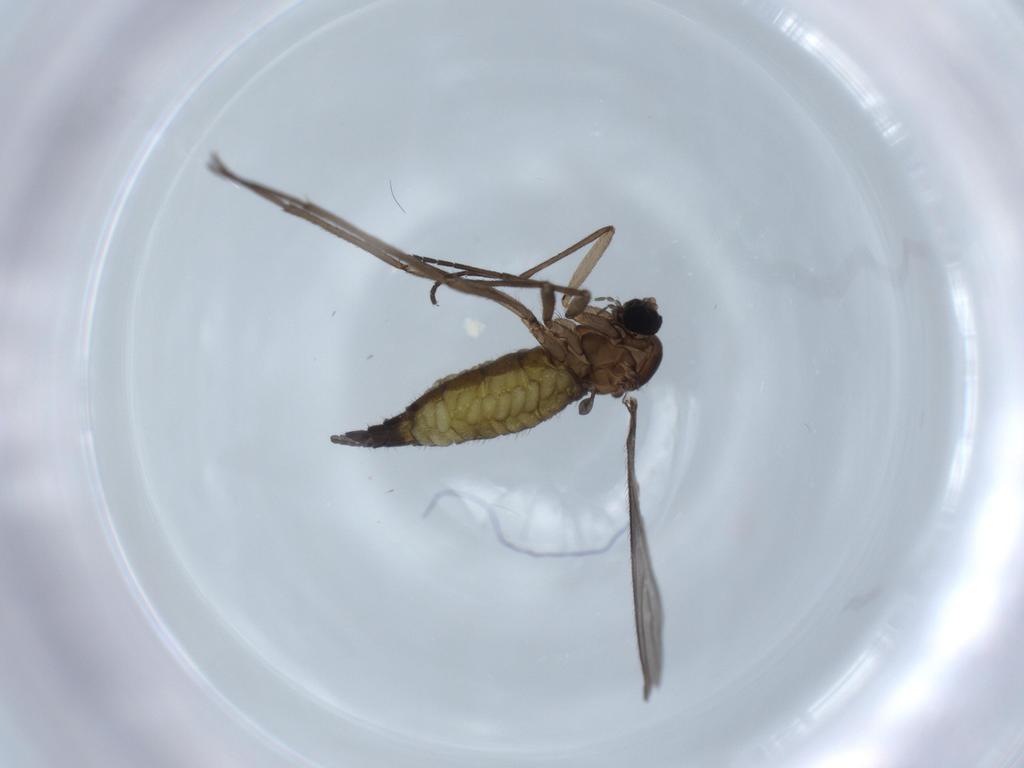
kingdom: Animalia
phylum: Arthropoda
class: Insecta
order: Diptera
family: Sciaridae
